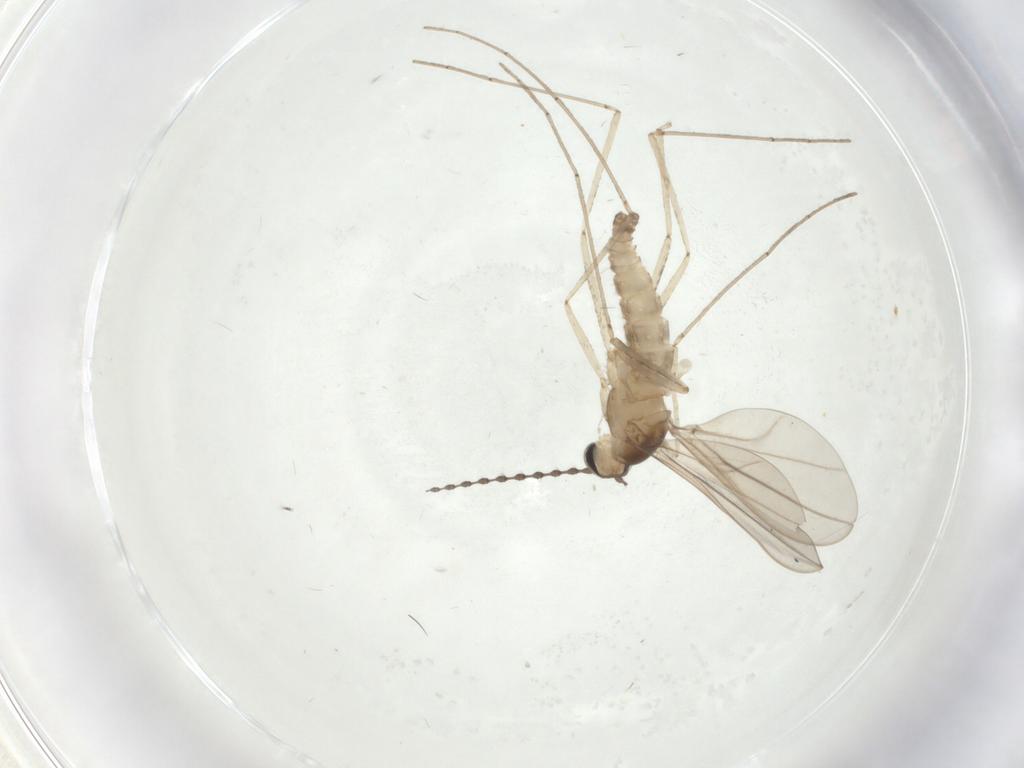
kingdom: Animalia
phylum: Arthropoda
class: Insecta
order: Diptera
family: Cecidomyiidae
